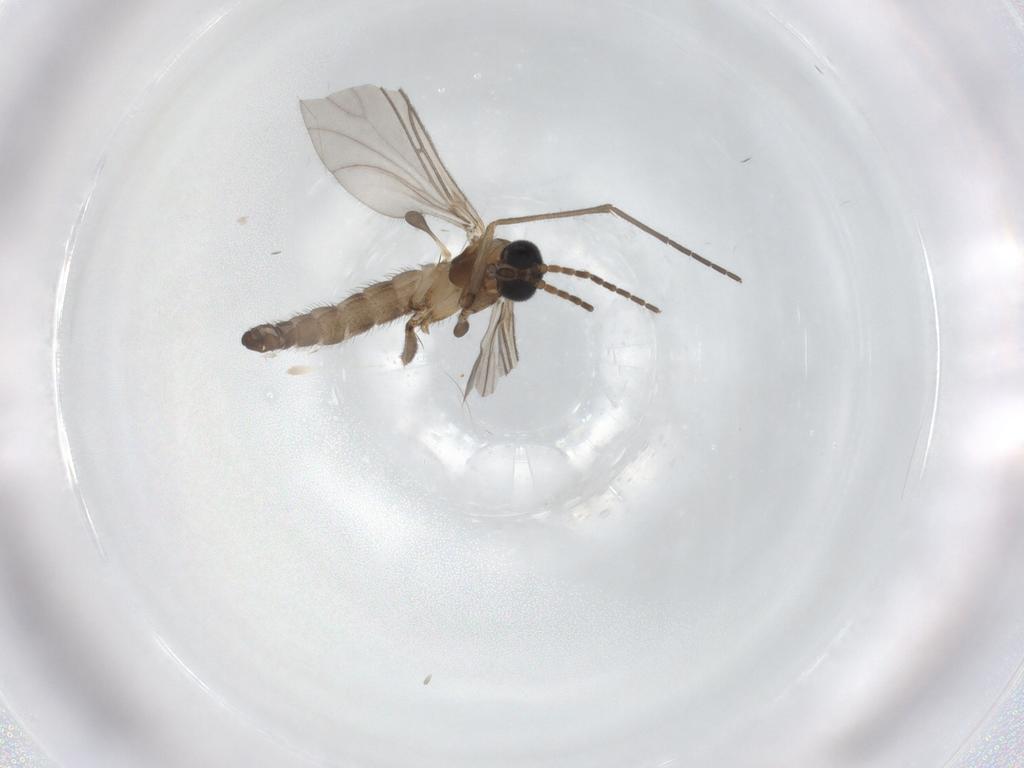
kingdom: Animalia
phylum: Arthropoda
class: Insecta
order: Diptera
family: Sciaridae
